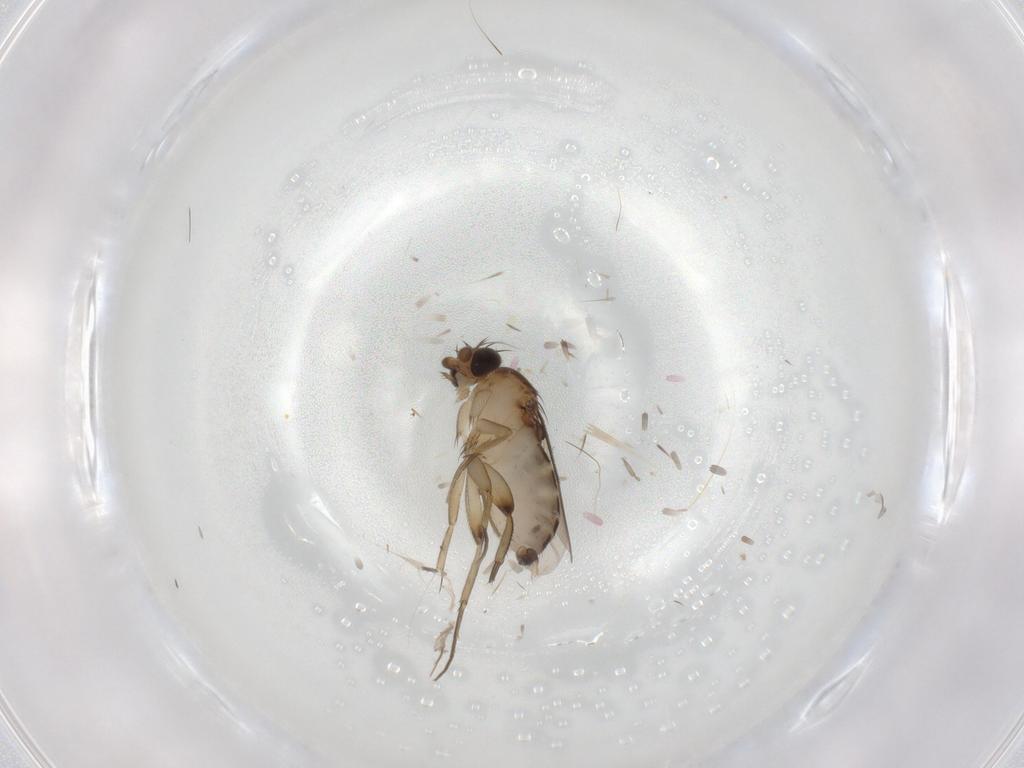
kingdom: Animalia
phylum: Arthropoda
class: Insecta
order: Diptera
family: Phoridae
